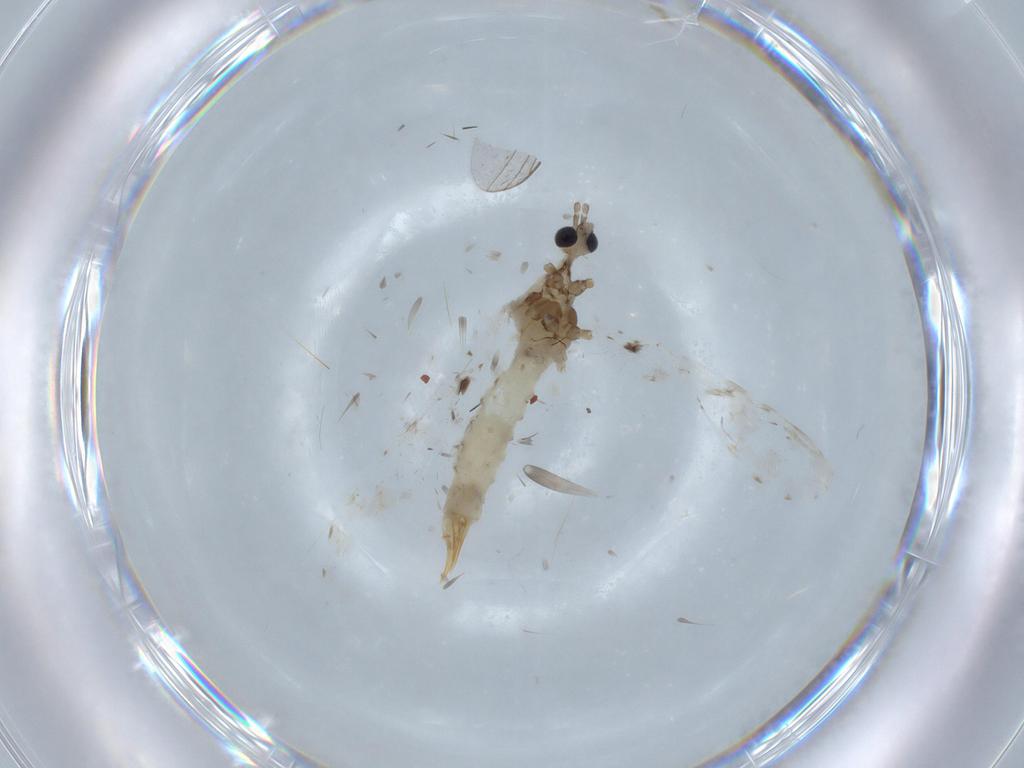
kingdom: Animalia
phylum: Arthropoda
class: Insecta
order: Diptera
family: Limoniidae
